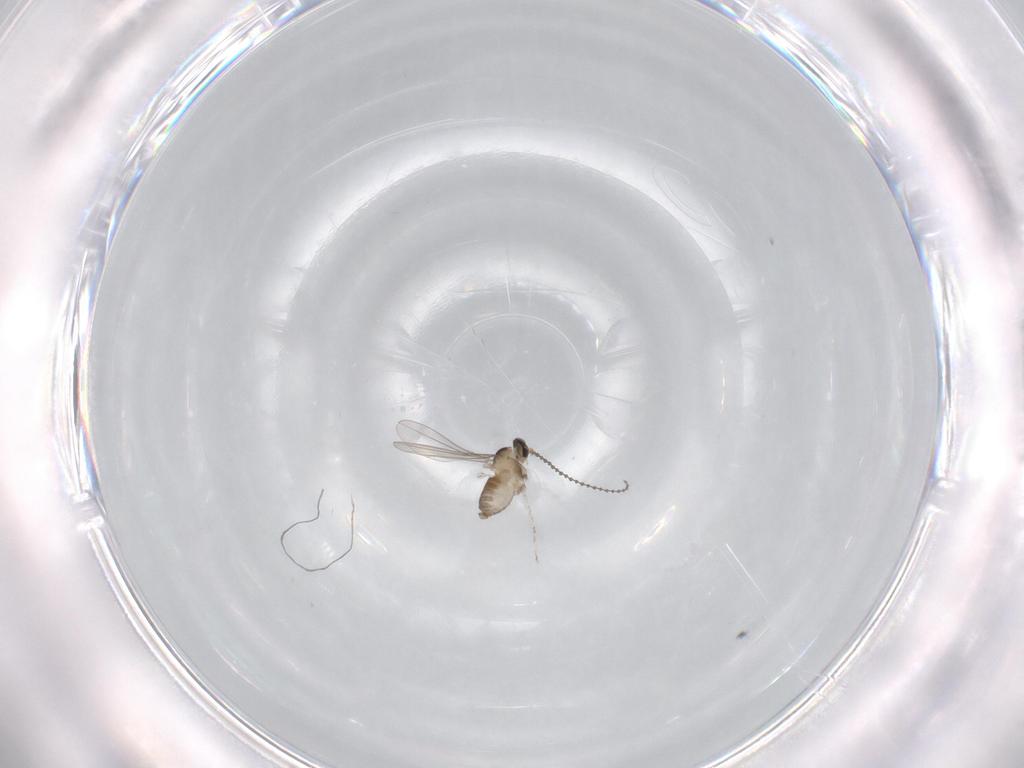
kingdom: Animalia
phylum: Arthropoda
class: Insecta
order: Diptera
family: Cecidomyiidae
